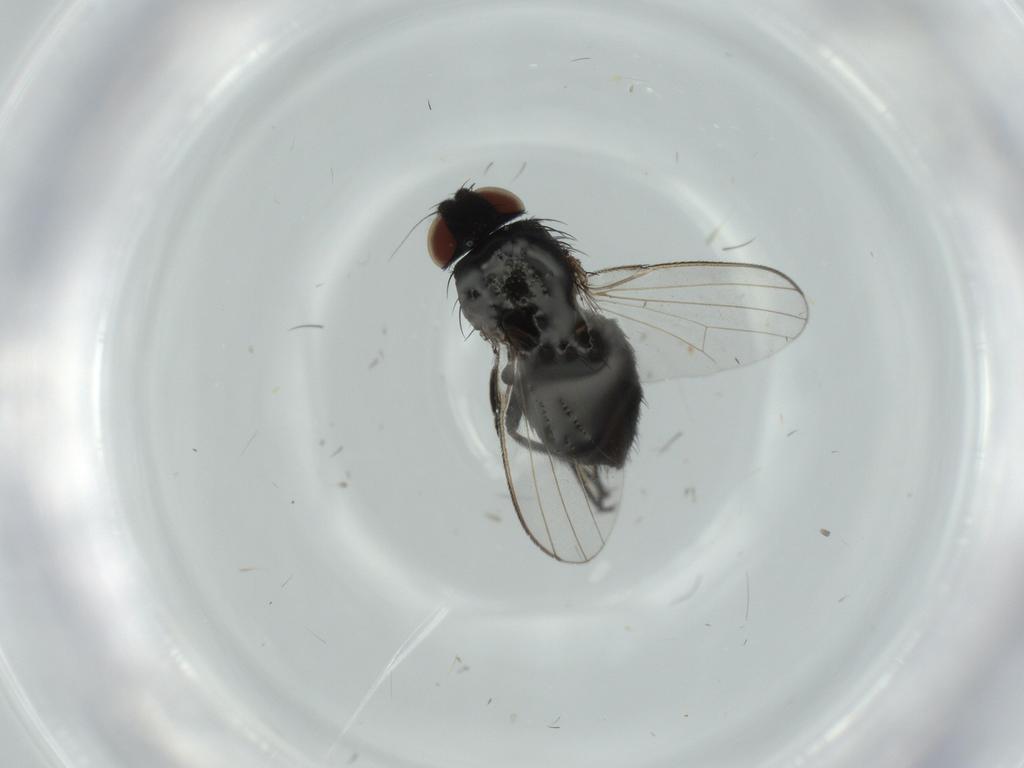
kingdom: Animalia
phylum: Arthropoda
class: Insecta
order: Diptera
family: Milichiidae
